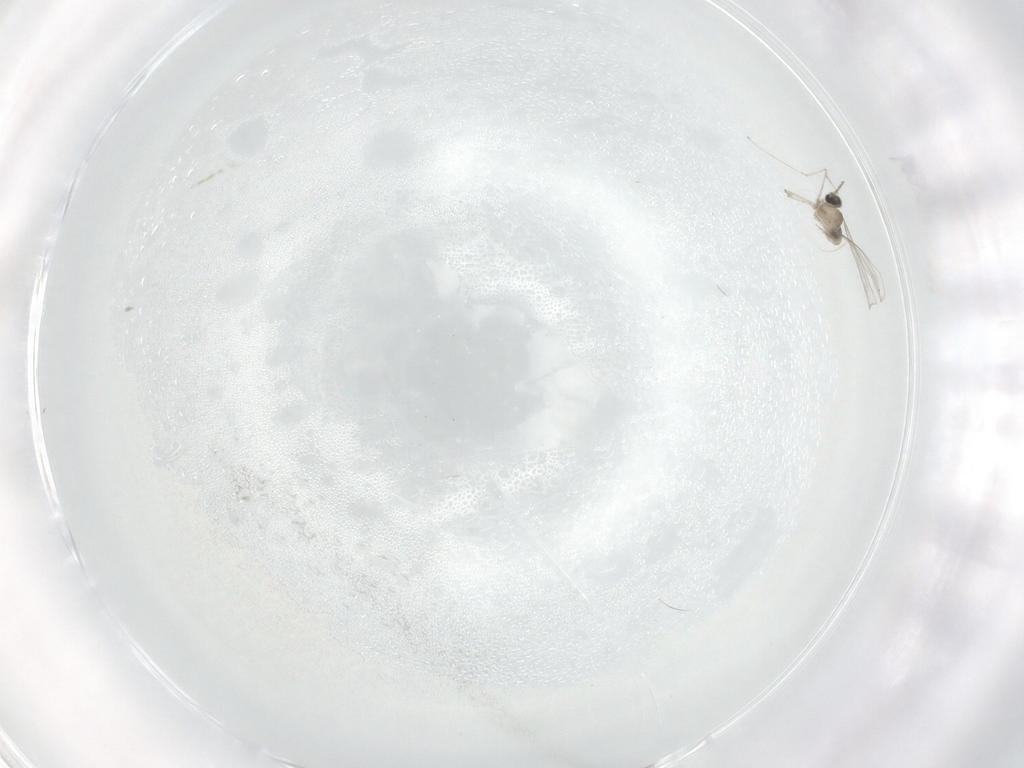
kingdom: Animalia
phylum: Arthropoda
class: Insecta
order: Diptera
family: Cecidomyiidae
